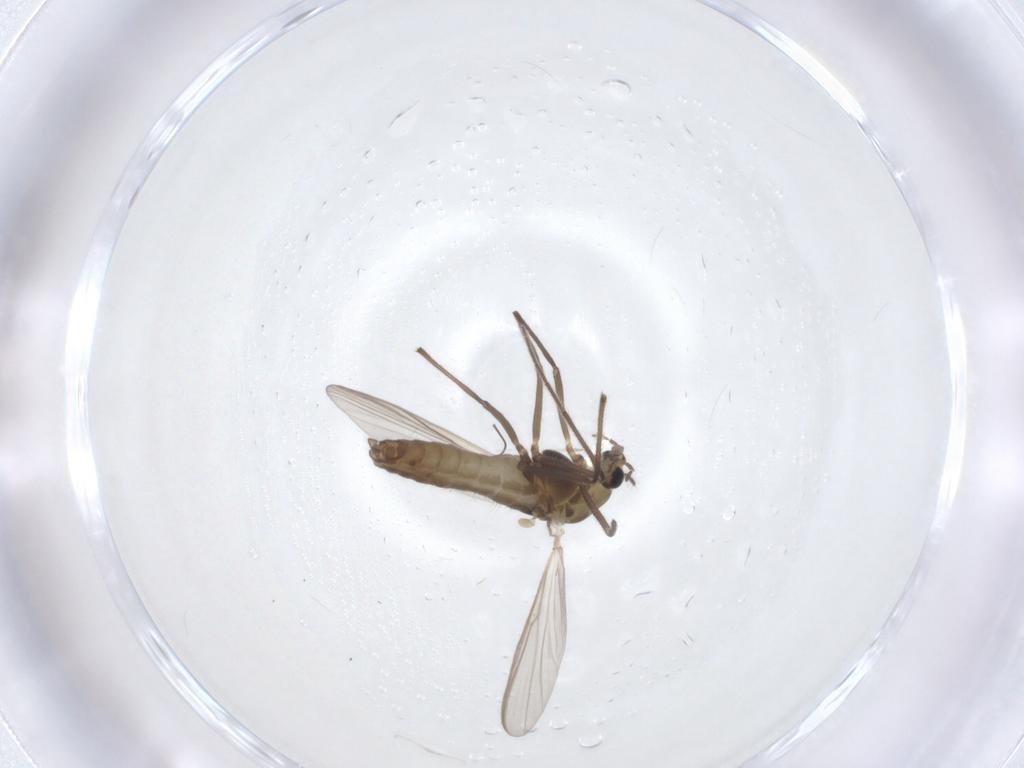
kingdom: Animalia
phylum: Arthropoda
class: Insecta
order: Diptera
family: Chironomidae
